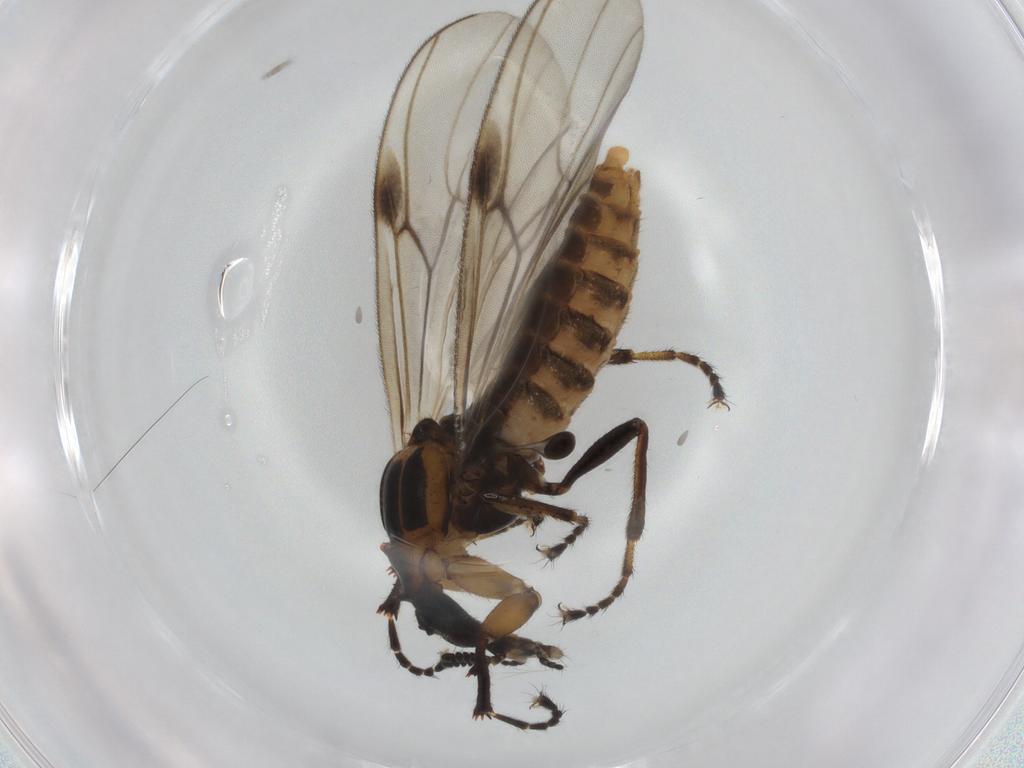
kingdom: Animalia
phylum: Arthropoda
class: Insecta
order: Diptera
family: Bibionidae
